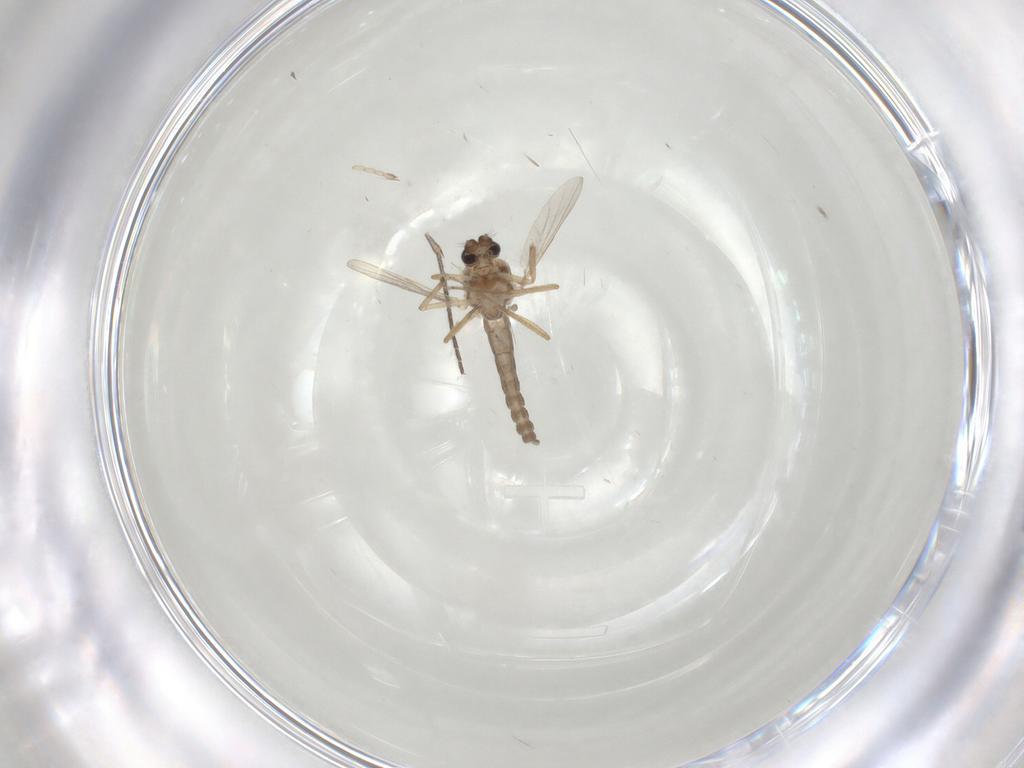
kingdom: Animalia
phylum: Arthropoda
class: Insecta
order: Diptera
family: Ceratopogonidae
